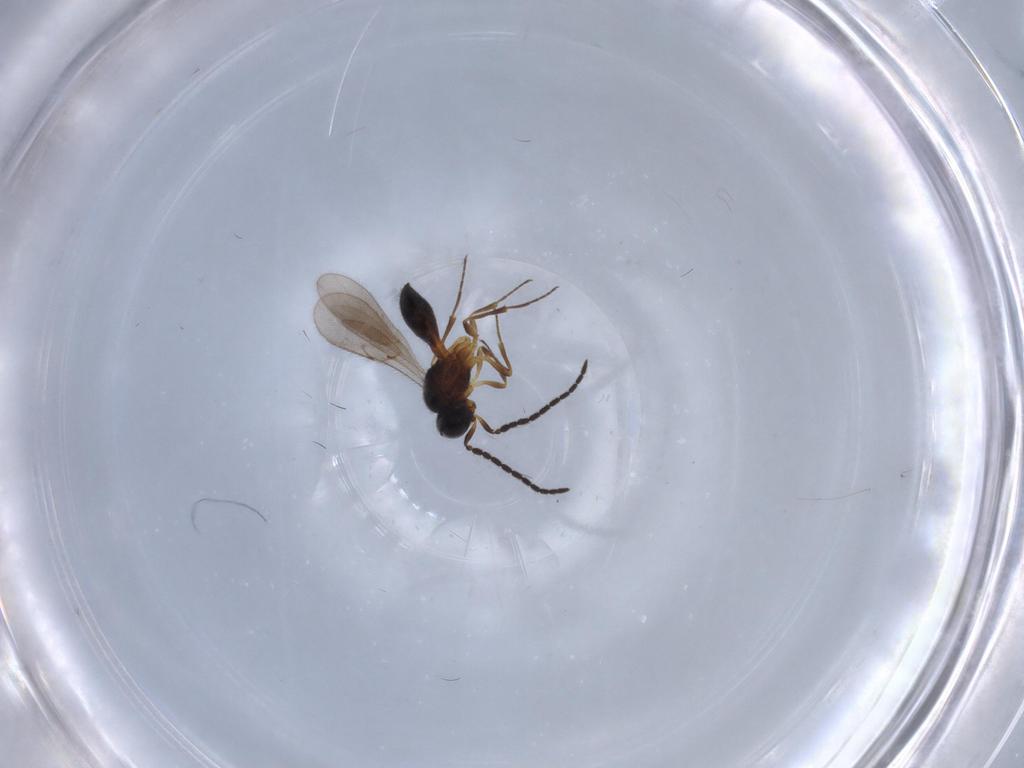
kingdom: Animalia
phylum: Arthropoda
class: Insecta
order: Hymenoptera
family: Scelionidae
